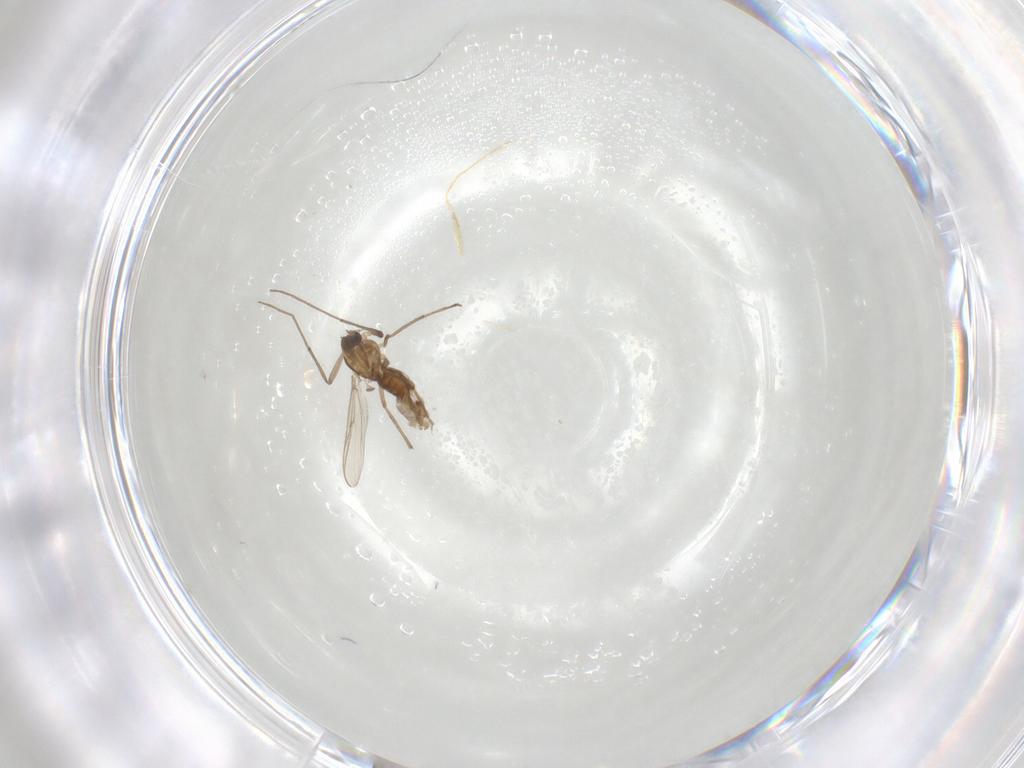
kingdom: Animalia
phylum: Arthropoda
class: Insecta
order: Diptera
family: Chironomidae
